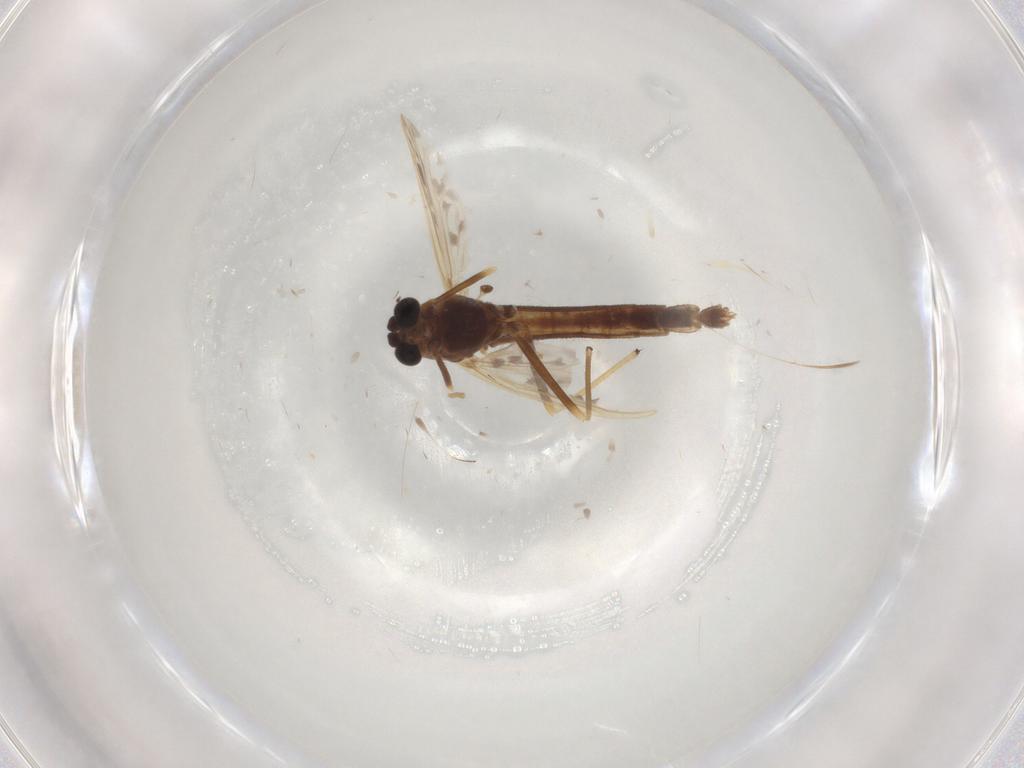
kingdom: Animalia
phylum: Arthropoda
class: Insecta
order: Diptera
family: Chironomidae
